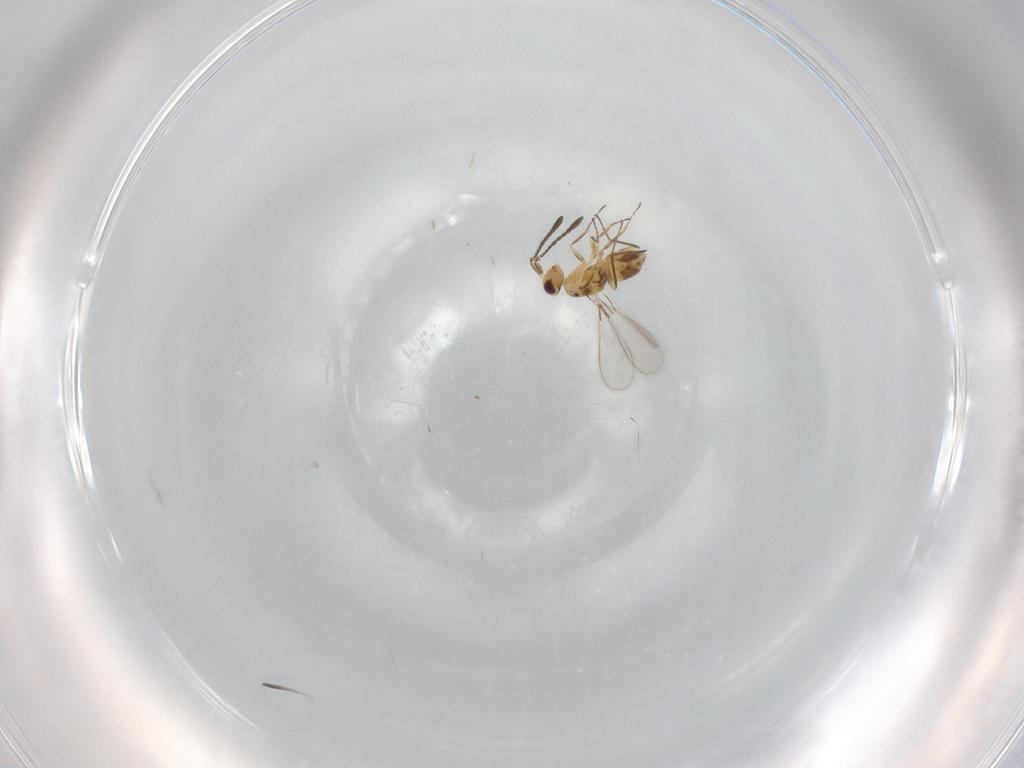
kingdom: Animalia
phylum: Arthropoda
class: Insecta
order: Hymenoptera
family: Mymaridae
